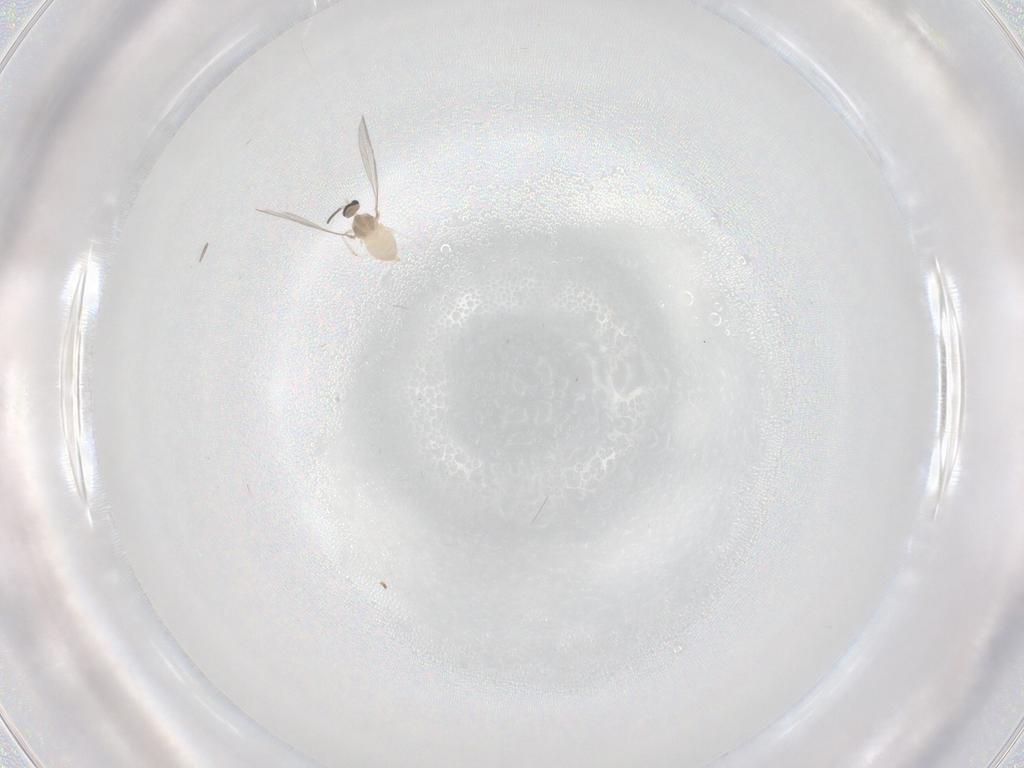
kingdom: Animalia
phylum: Arthropoda
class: Insecta
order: Diptera
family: Cecidomyiidae
